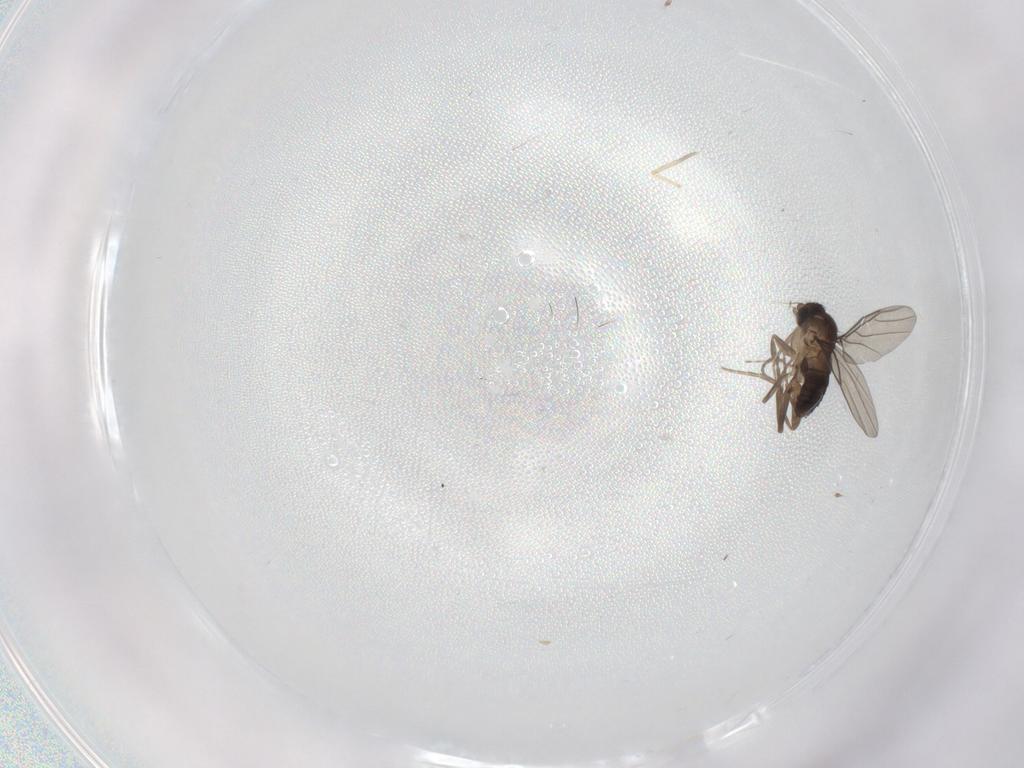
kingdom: Animalia
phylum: Arthropoda
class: Insecta
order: Diptera
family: Phoridae
